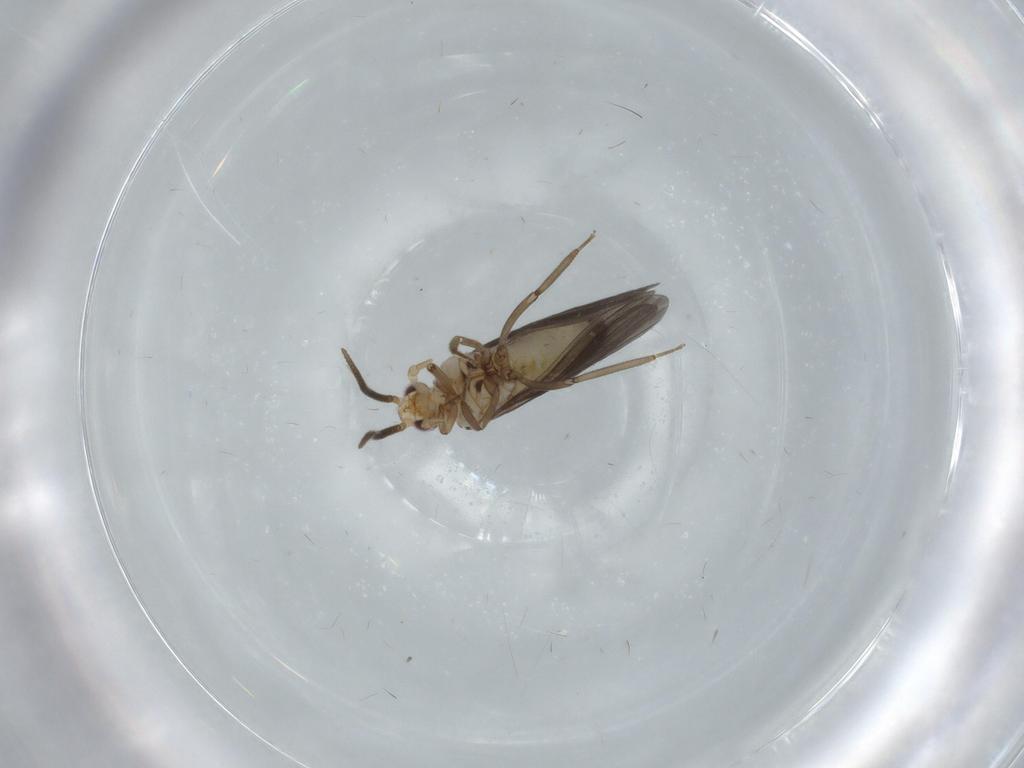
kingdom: Animalia
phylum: Arthropoda
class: Insecta
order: Neuroptera
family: Coniopterygidae
